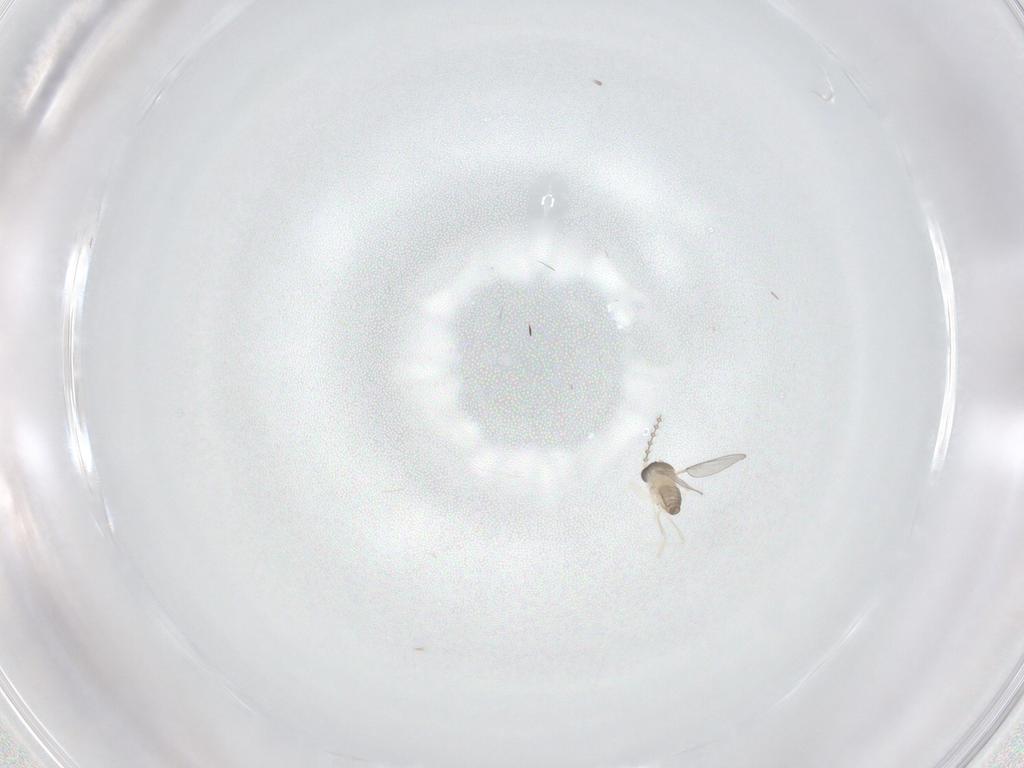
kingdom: Animalia
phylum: Arthropoda
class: Insecta
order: Diptera
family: Cecidomyiidae
